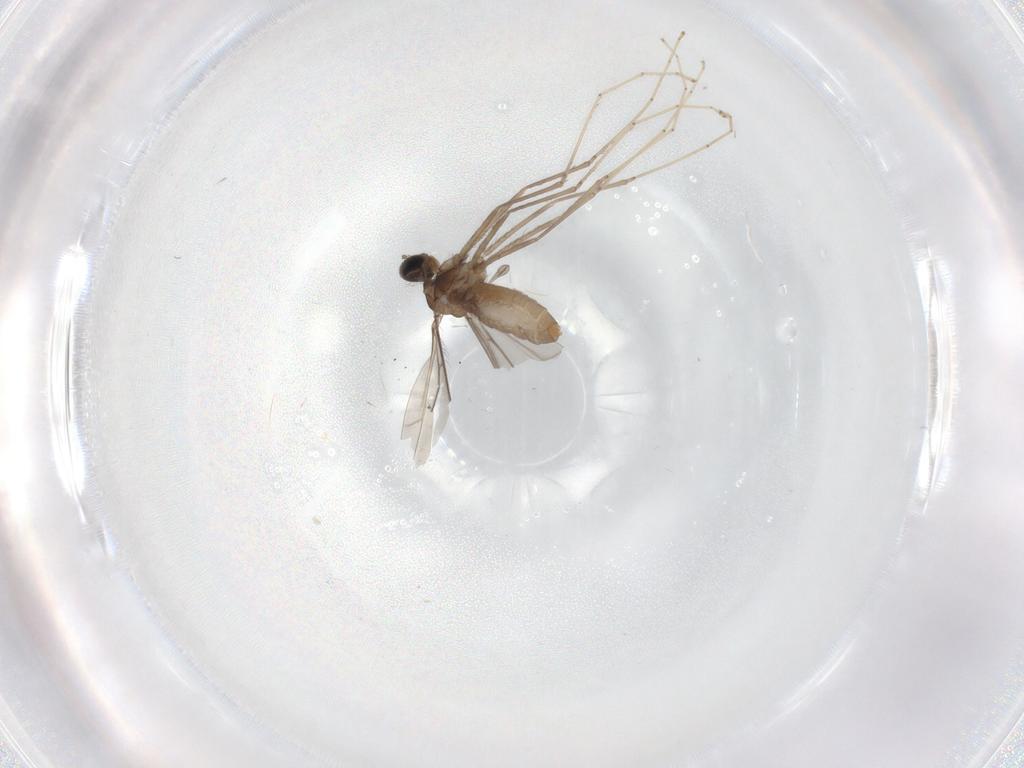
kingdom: Animalia
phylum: Arthropoda
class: Insecta
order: Diptera
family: Cecidomyiidae
